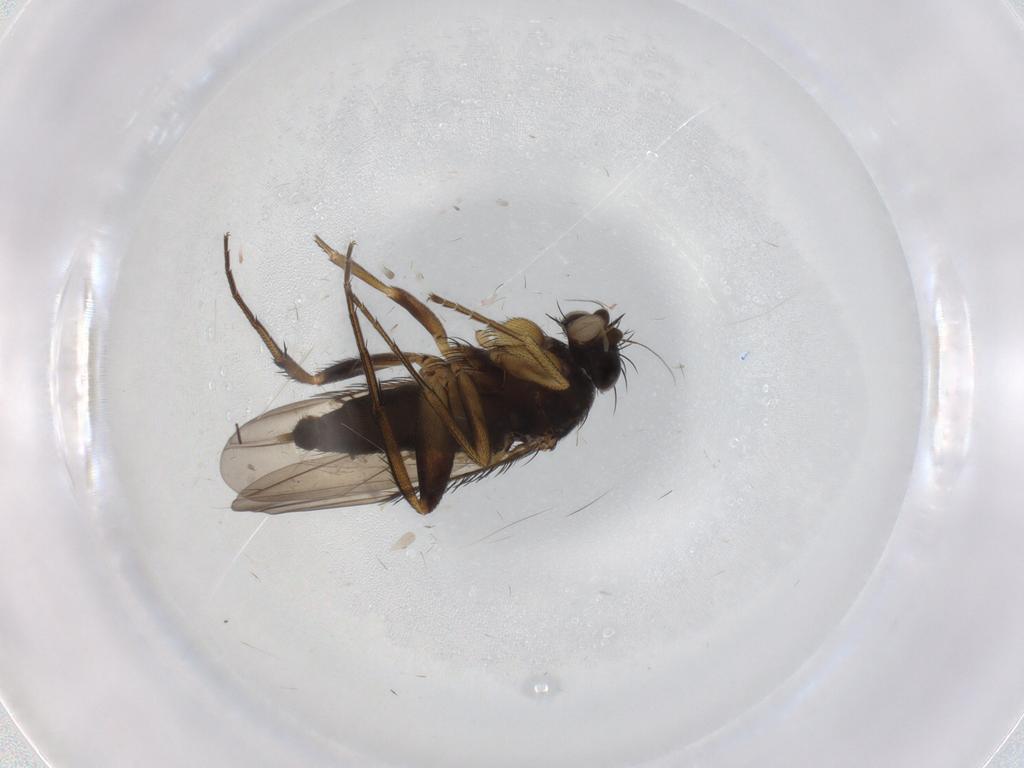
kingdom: Animalia
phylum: Arthropoda
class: Insecta
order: Diptera
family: Phoridae
